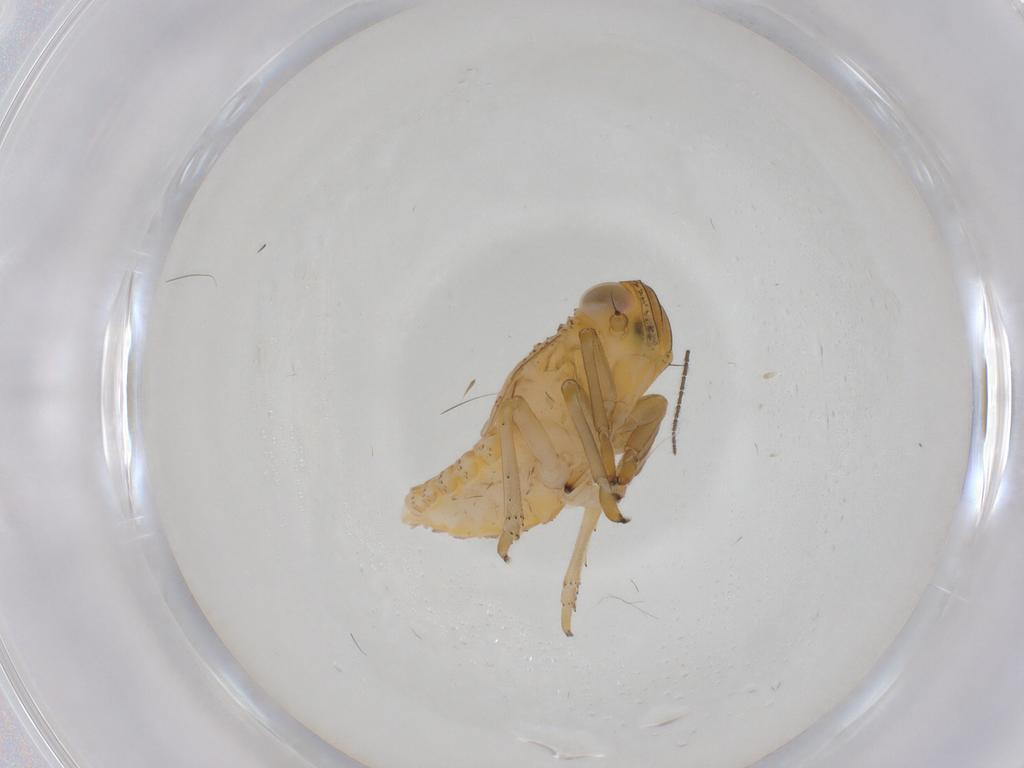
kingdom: Animalia
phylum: Arthropoda
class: Insecta
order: Hemiptera
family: Issidae
